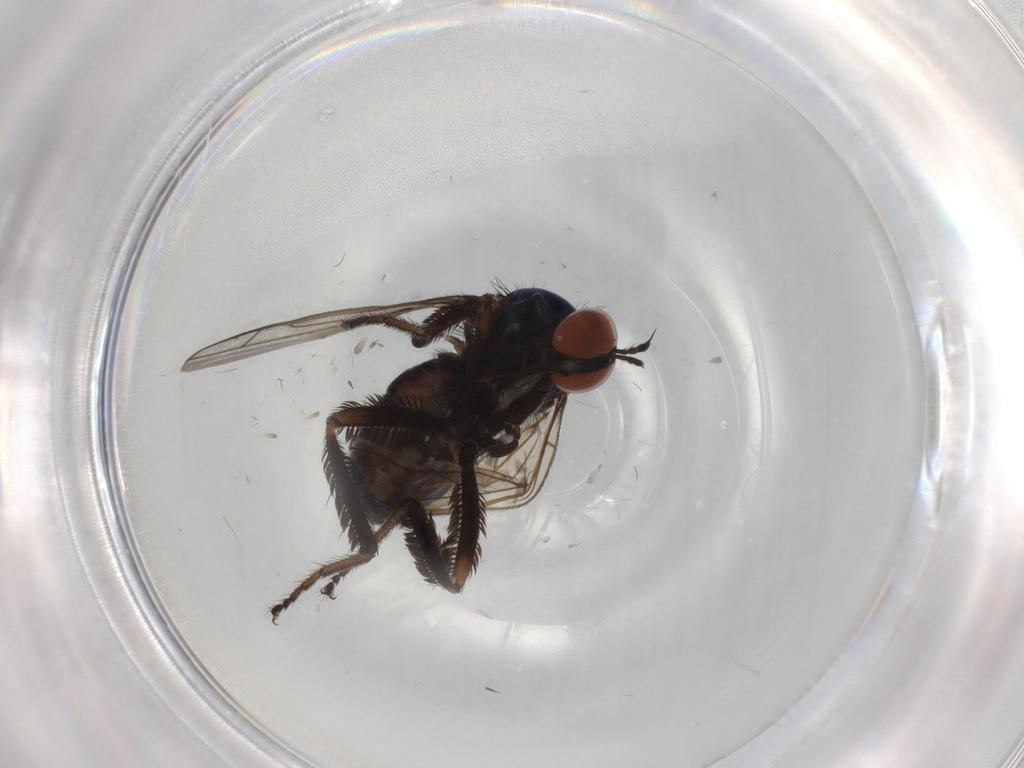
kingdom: Animalia
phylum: Arthropoda
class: Insecta
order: Diptera
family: Empididae
